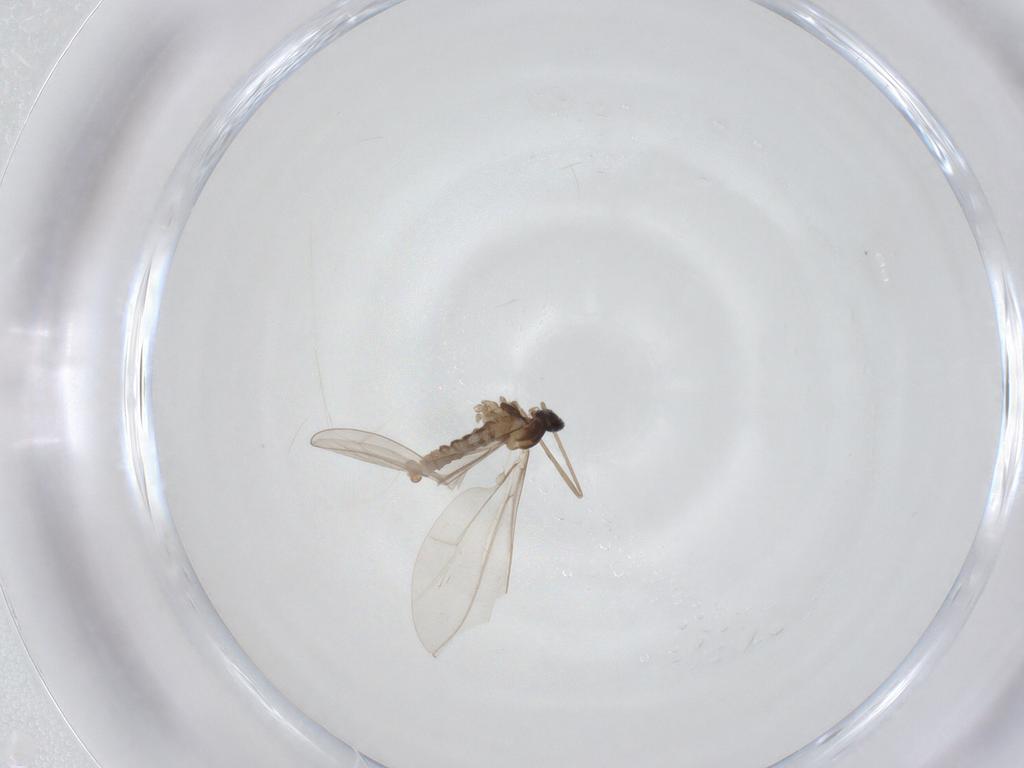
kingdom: Animalia
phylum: Arthropoda
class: Insecta
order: Diptera
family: Cecidomyiidae
